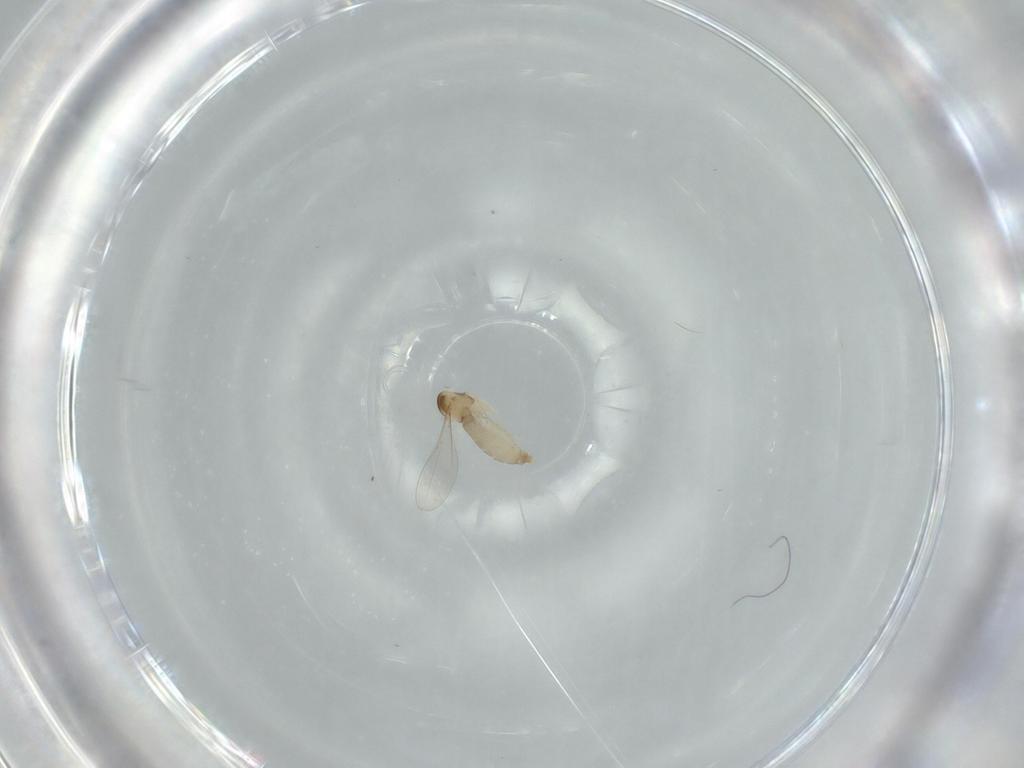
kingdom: Animalia
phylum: Arthropoda
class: Insecta
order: Diptera
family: Cecidomyiidae
